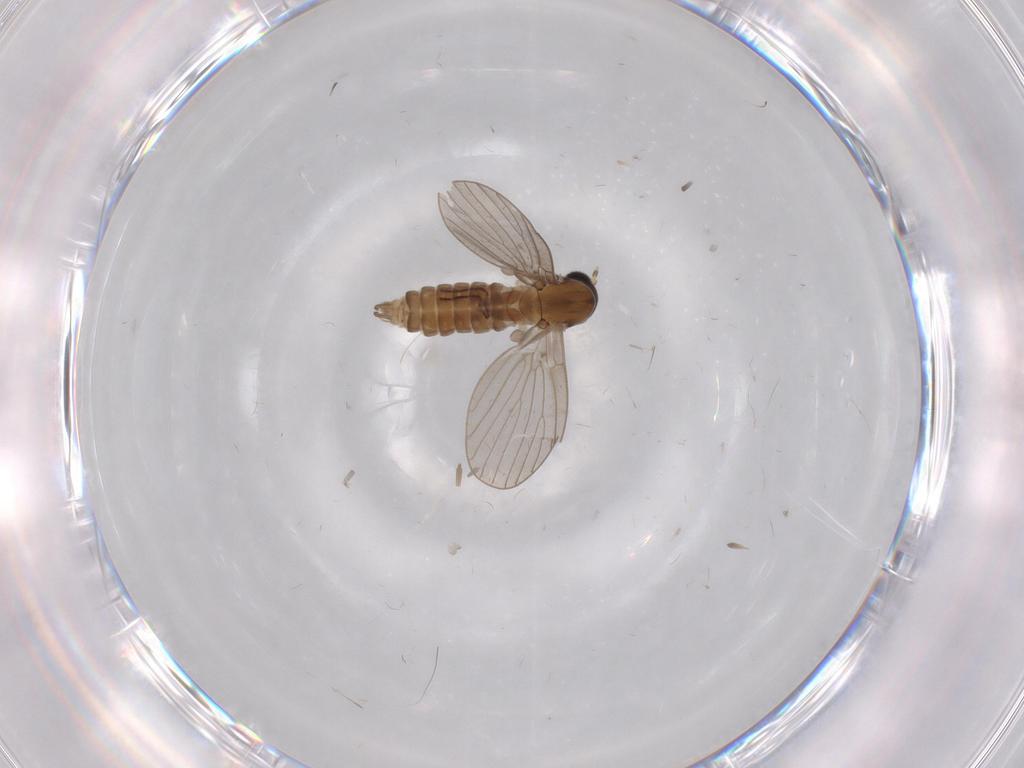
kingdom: Animalia
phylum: Arthropoda
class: Insecta
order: Diptera
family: Psychodidae
